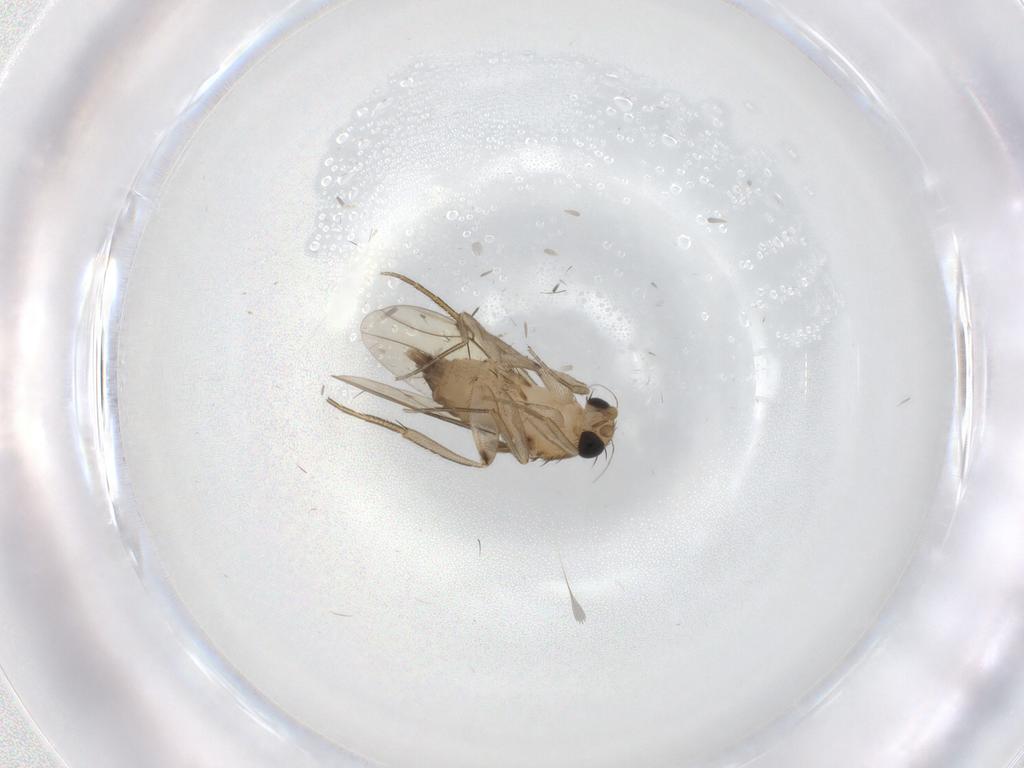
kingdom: Animalia
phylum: Arthropoda
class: Insecta
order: Diptera
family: Phoridae
